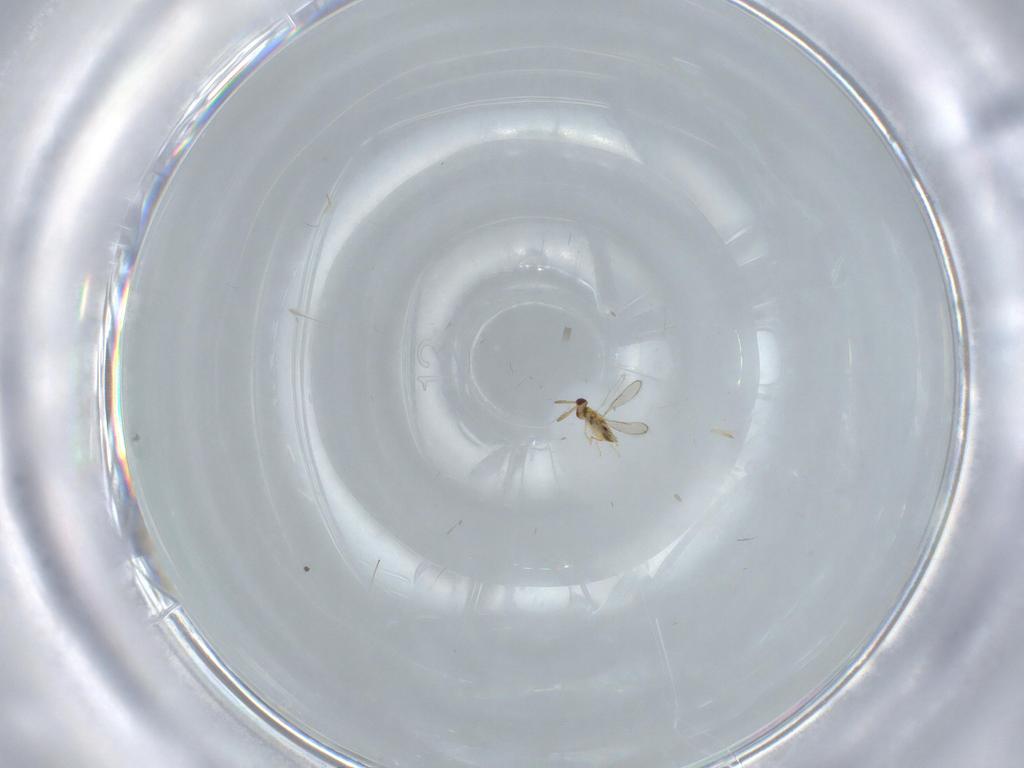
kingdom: Animalia
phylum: Arthropoda
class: Insecta
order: Hymenoptera
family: Aphelinidae
